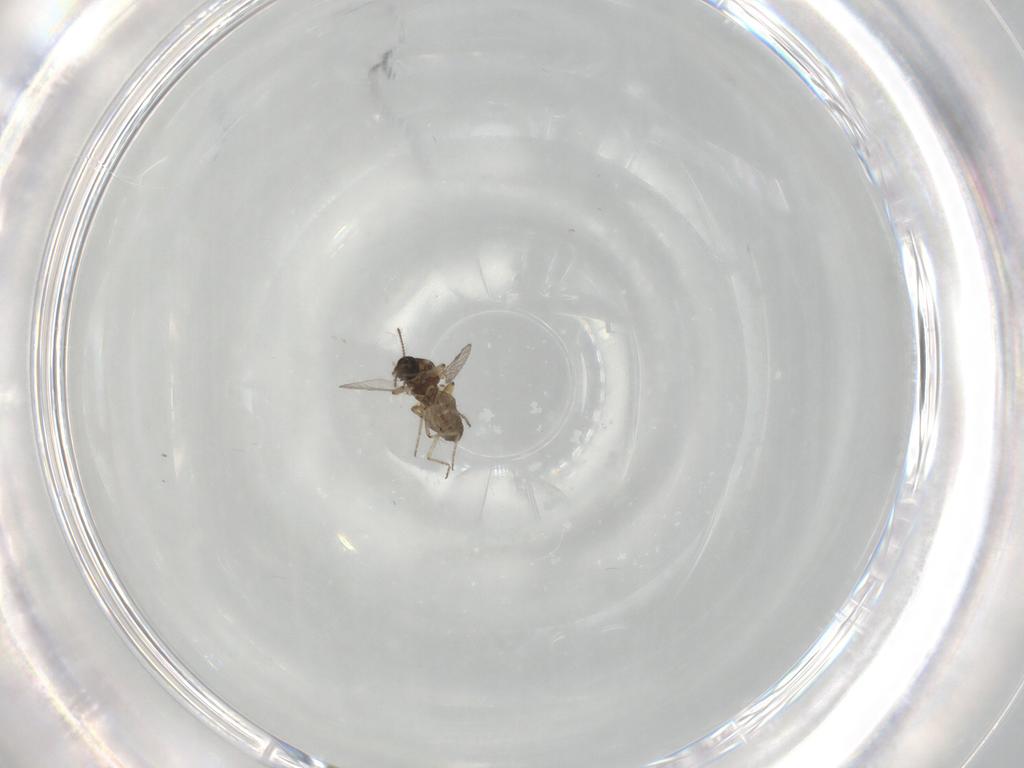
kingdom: Animalia
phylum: Arthropoda
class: Insecta
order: Diptera
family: Ceratopogonidae
